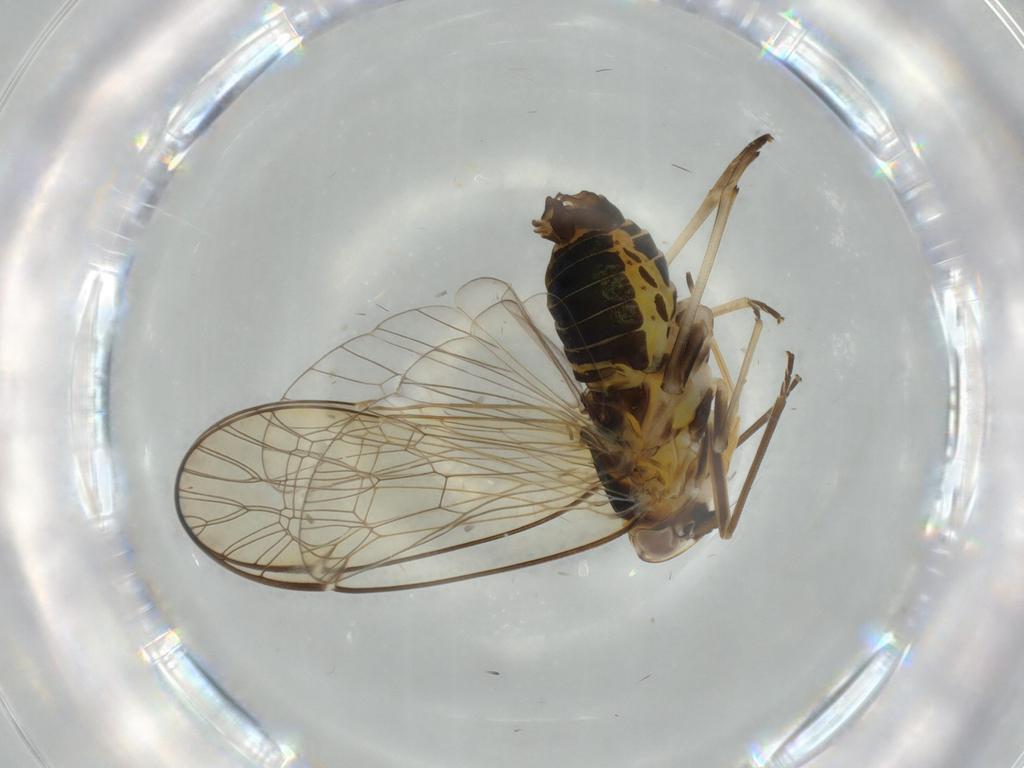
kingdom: Animalia
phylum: Arthropoda
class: Insecta
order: Hemiptera
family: Kinnaridae
